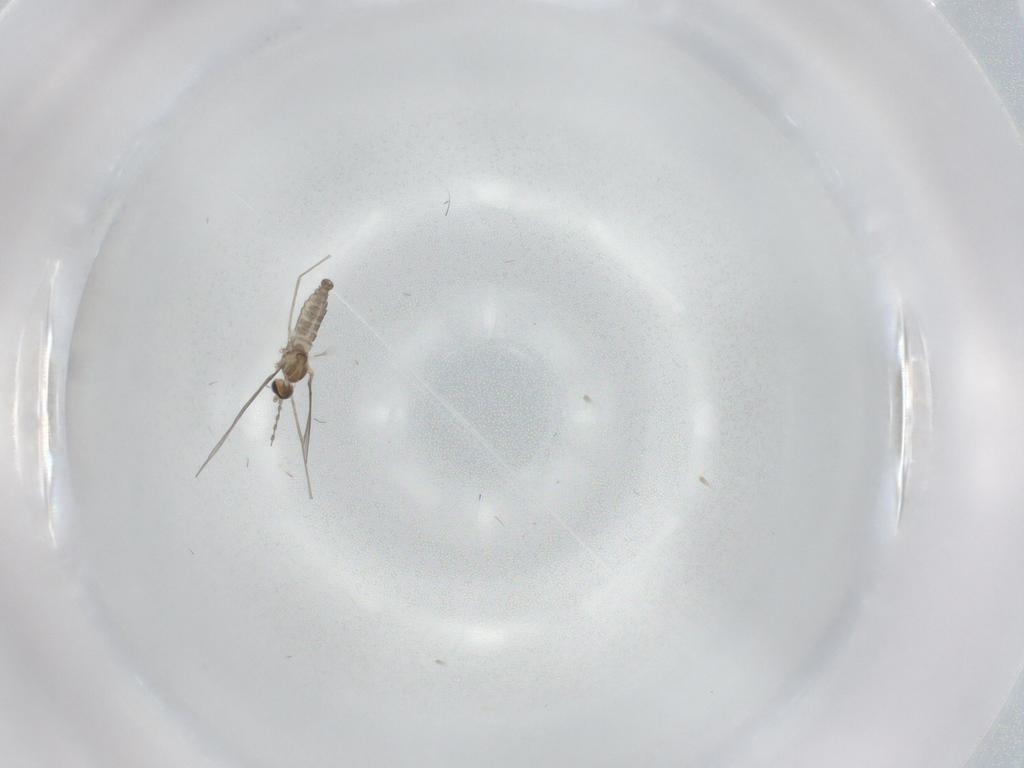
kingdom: Animalia
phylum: Arthropoda
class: Insecta
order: Diptera
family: Cecidomyiidae
